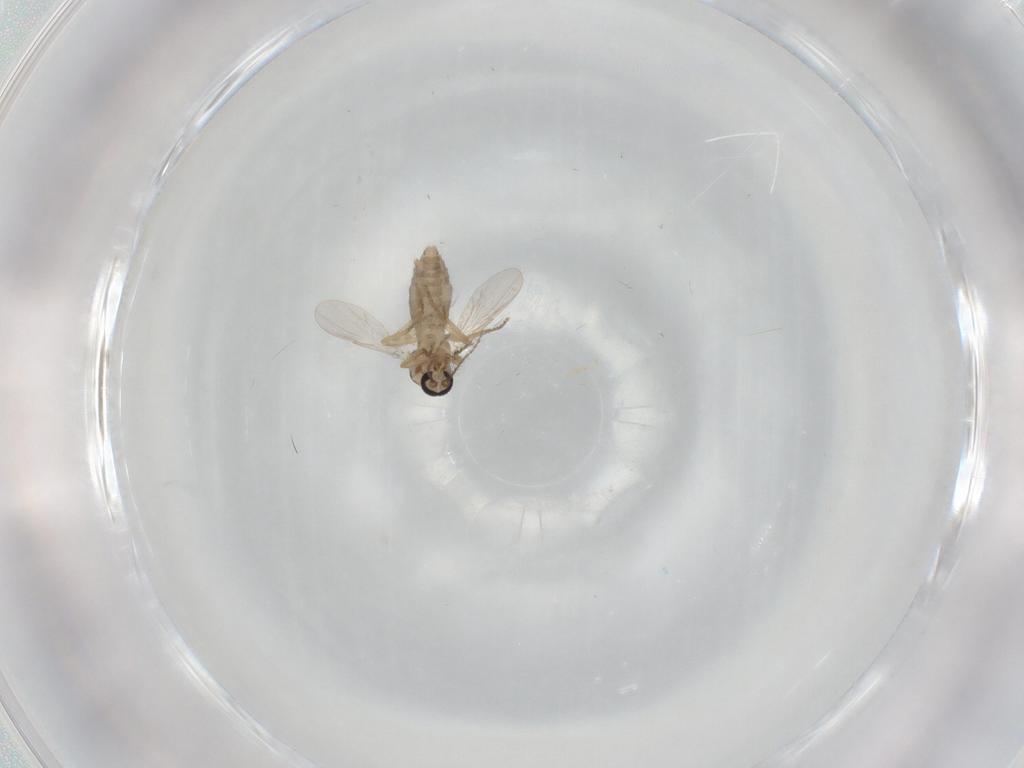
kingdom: Animalia
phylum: Arthropoda
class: Insecta
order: Diptera
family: Ceratopogonidae
